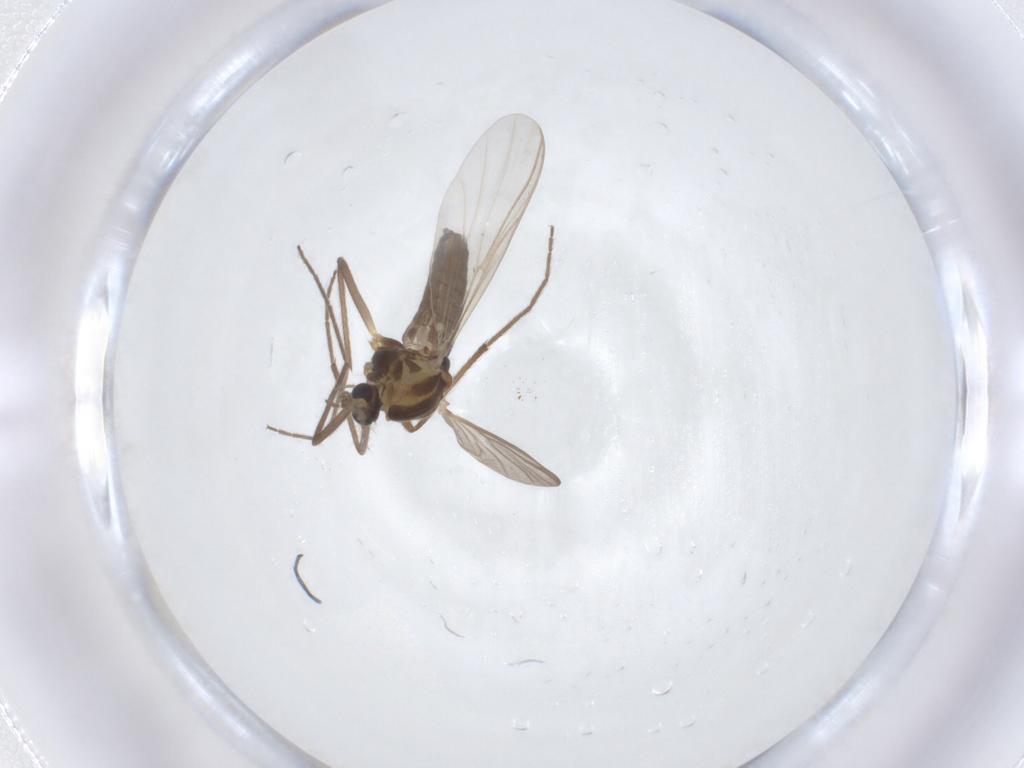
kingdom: Animalia
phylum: Arthropoda
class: Insecta
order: Diptera
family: Chironomidae
